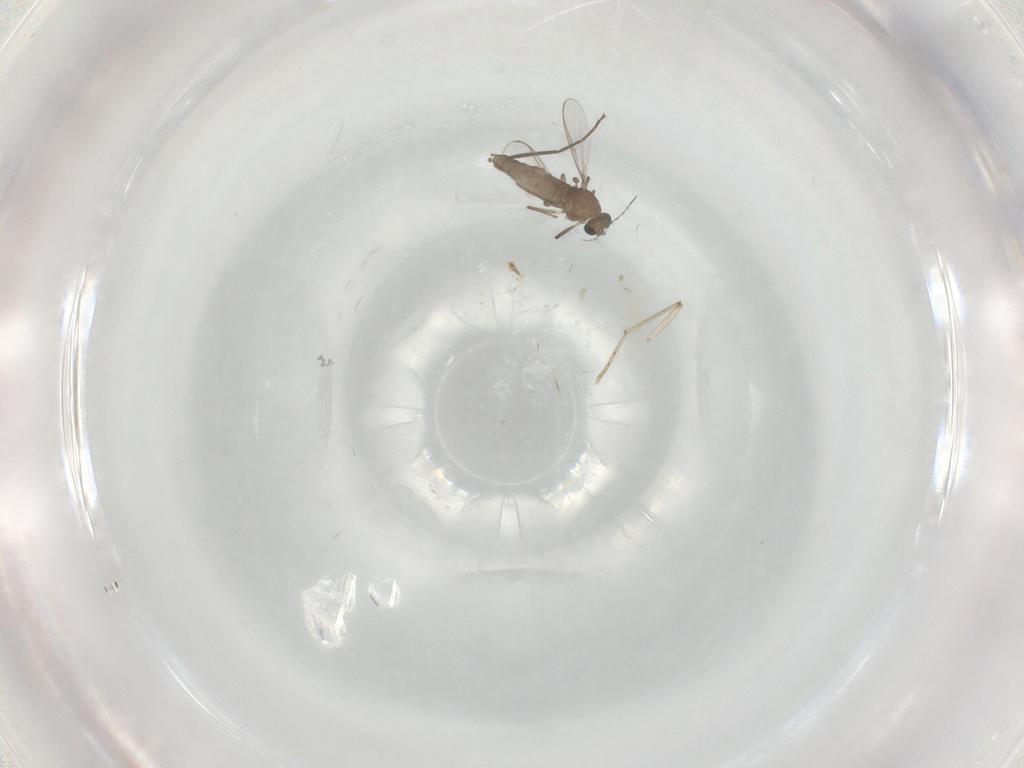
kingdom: Animalia
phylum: Arthropoda
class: Insecta
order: Diptera
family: Chironomidae
